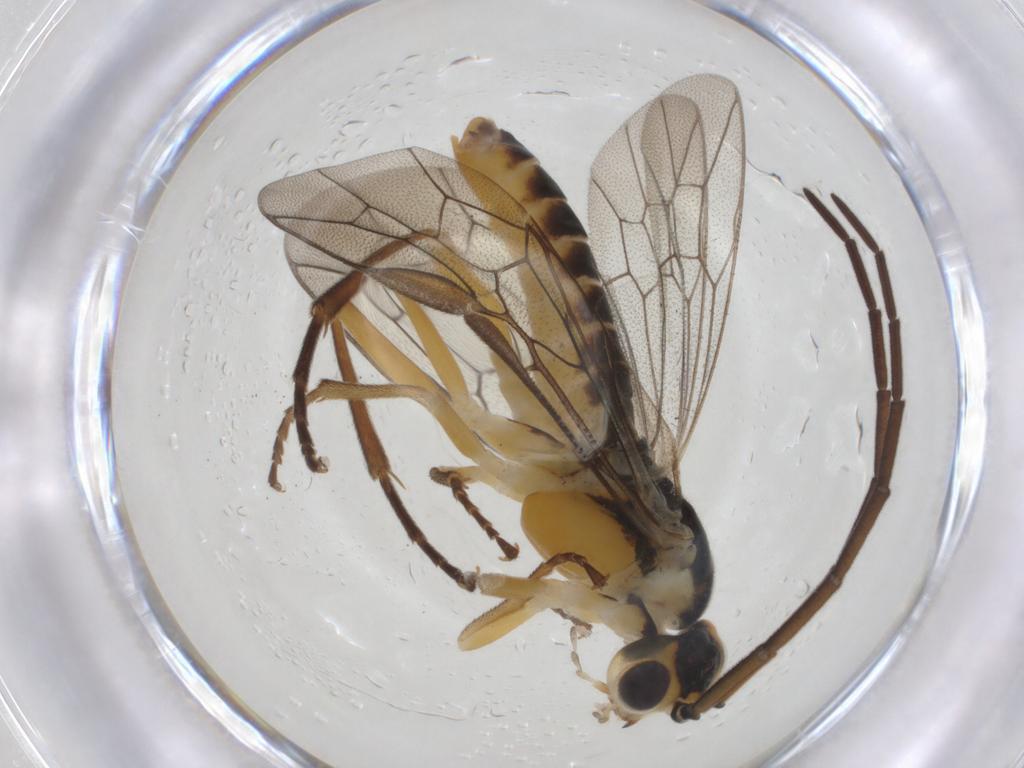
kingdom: Animalia
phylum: Arthropoda
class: Insecta
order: Hymenoptera
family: Braconidae
